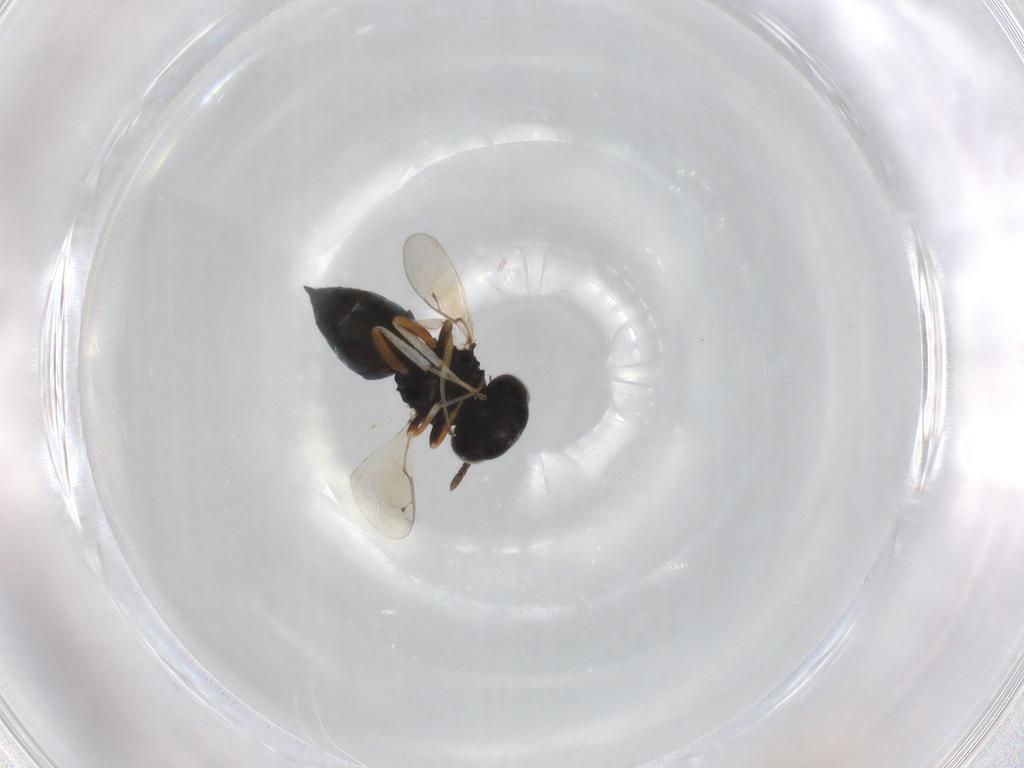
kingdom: Animalia
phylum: Arthropoda
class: Insecta
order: Hymenoptera
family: Pteromalidae
